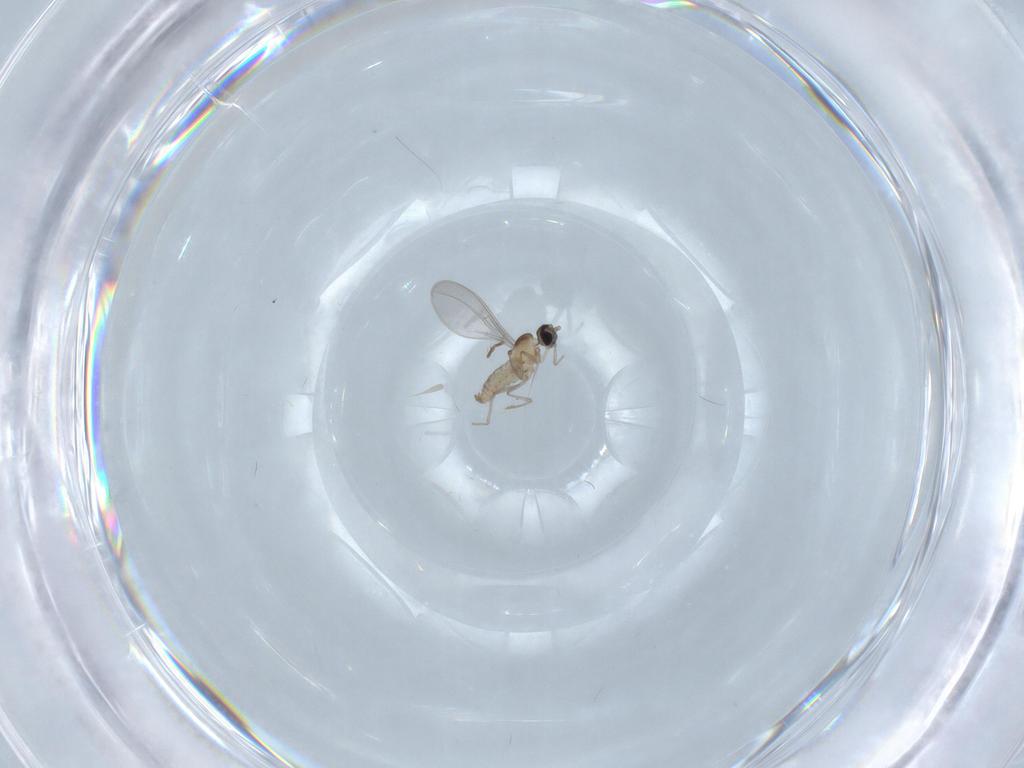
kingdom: Animalia
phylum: Arthropoda
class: Insecta
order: Diptera
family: Cecidomyiidae
